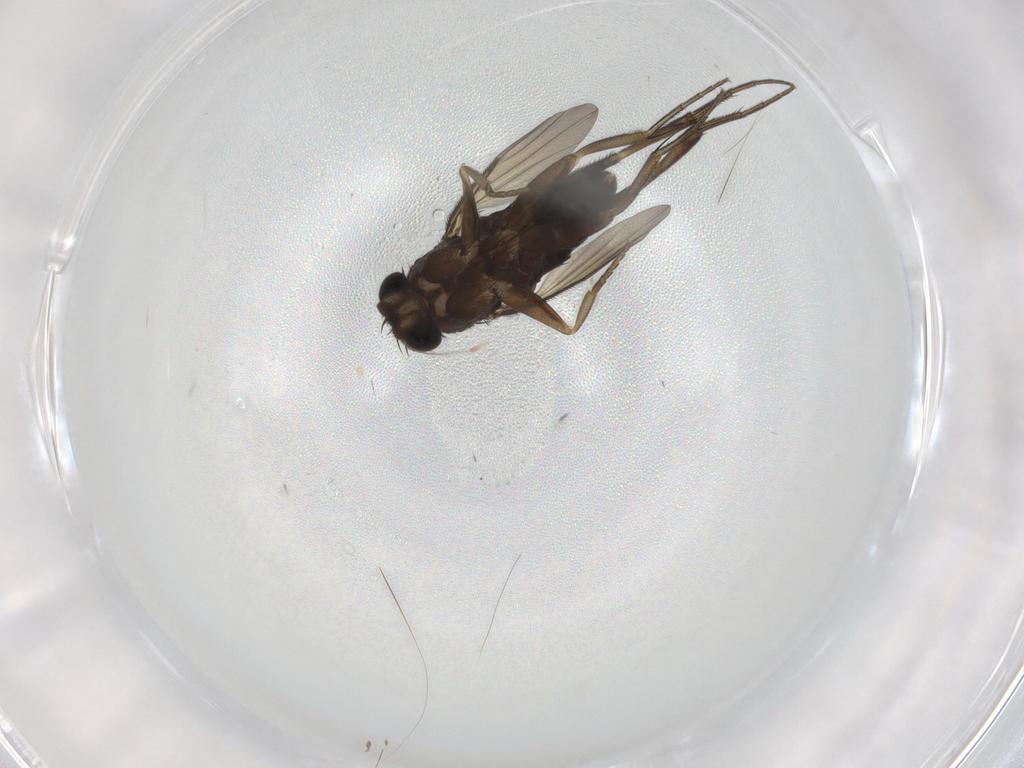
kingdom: Animalia
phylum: Arthropoda
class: Insecta
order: Diptera
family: Phoridae
